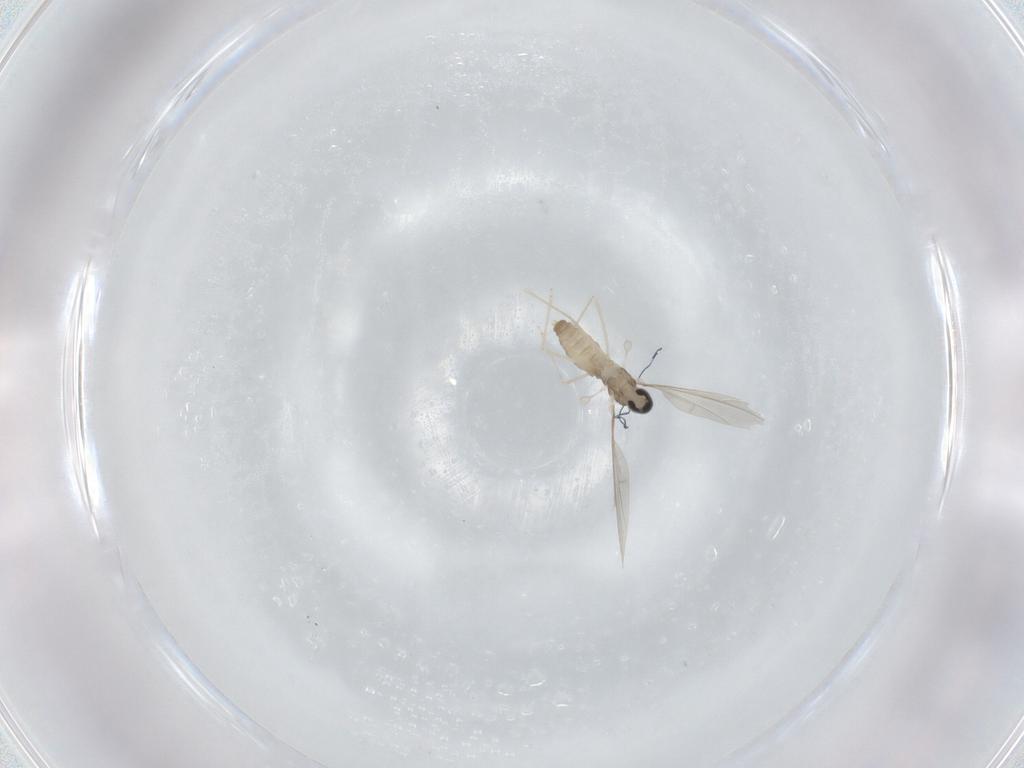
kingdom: Animalia
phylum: Arthropoda
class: Insecta
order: Diptera
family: Cecidomyiidae
